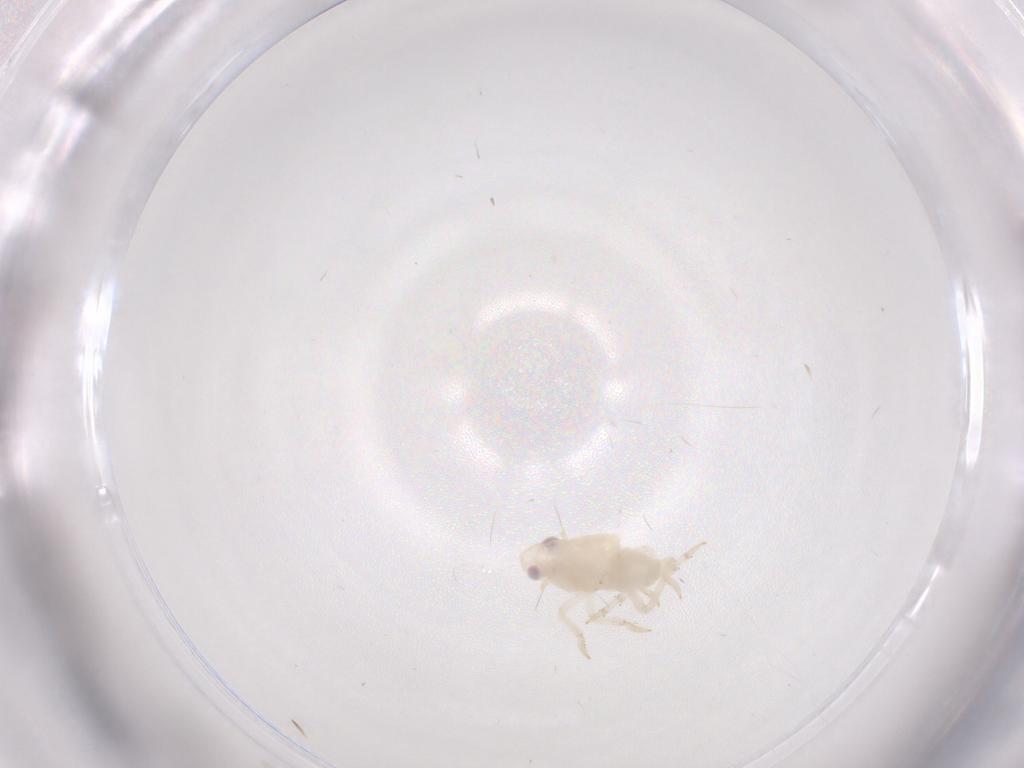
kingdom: Animalia
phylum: Arthropoda
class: Insecta
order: Hemiptera
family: Tropiduchidae
